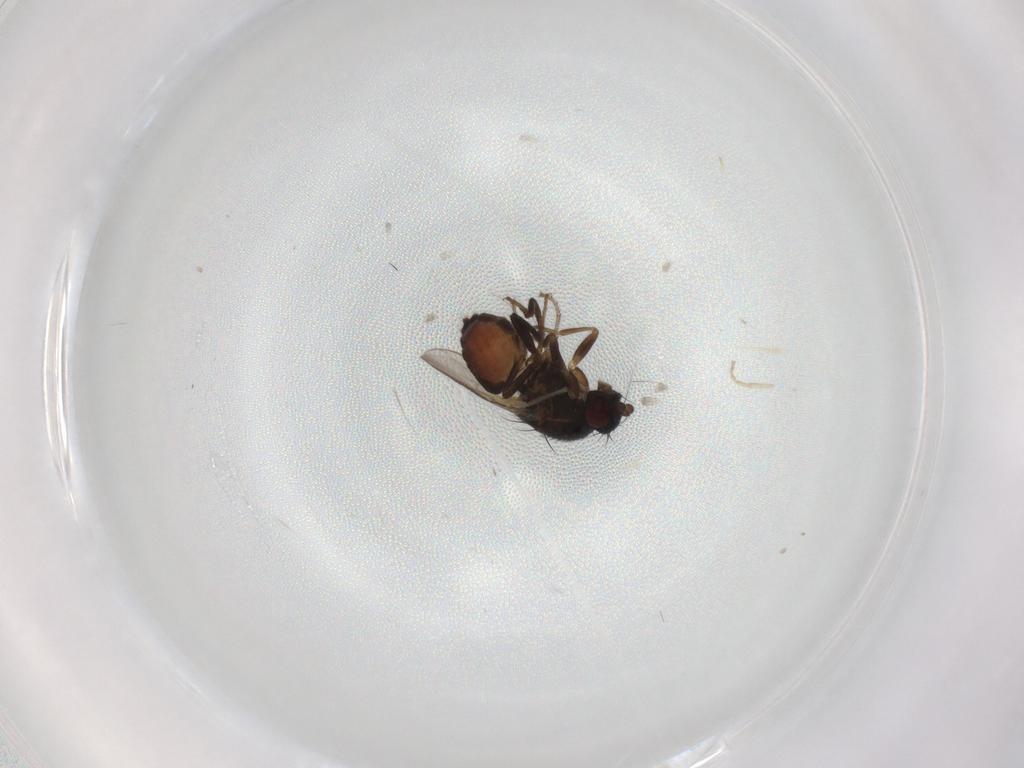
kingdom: Animalia
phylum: Arthropoda
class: Insecta
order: Diptera
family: Sphaeroceridae
